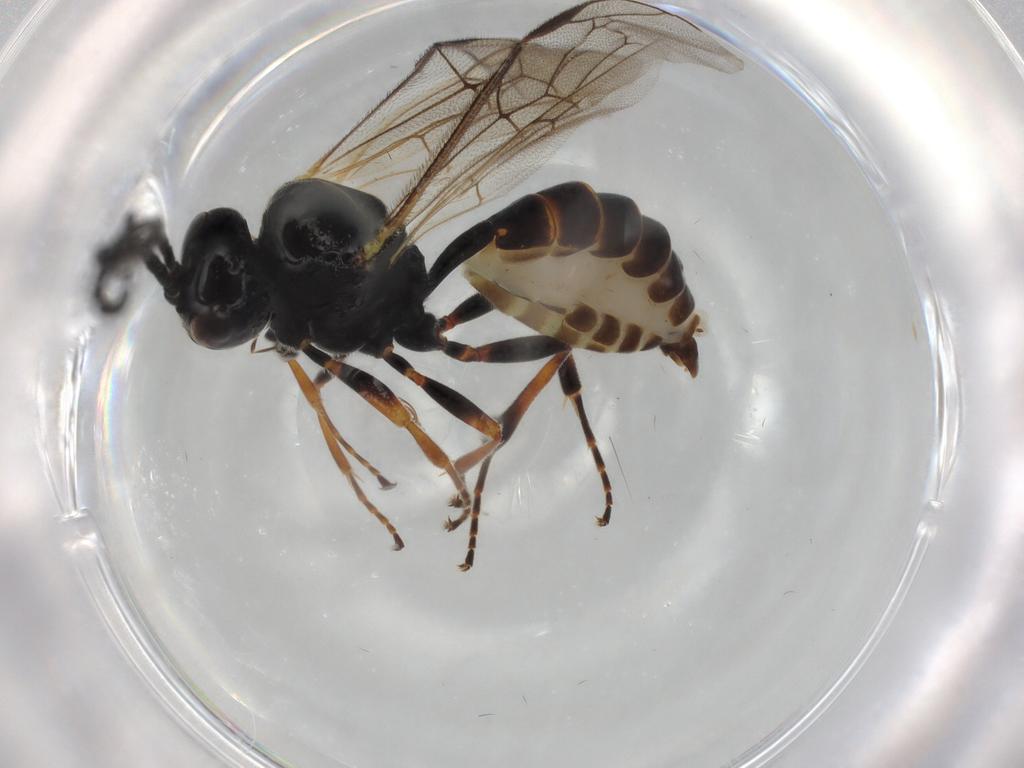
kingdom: Animalia
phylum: Arthropoda
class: Insecta
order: Hymenoptera
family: Ichneumonidae
